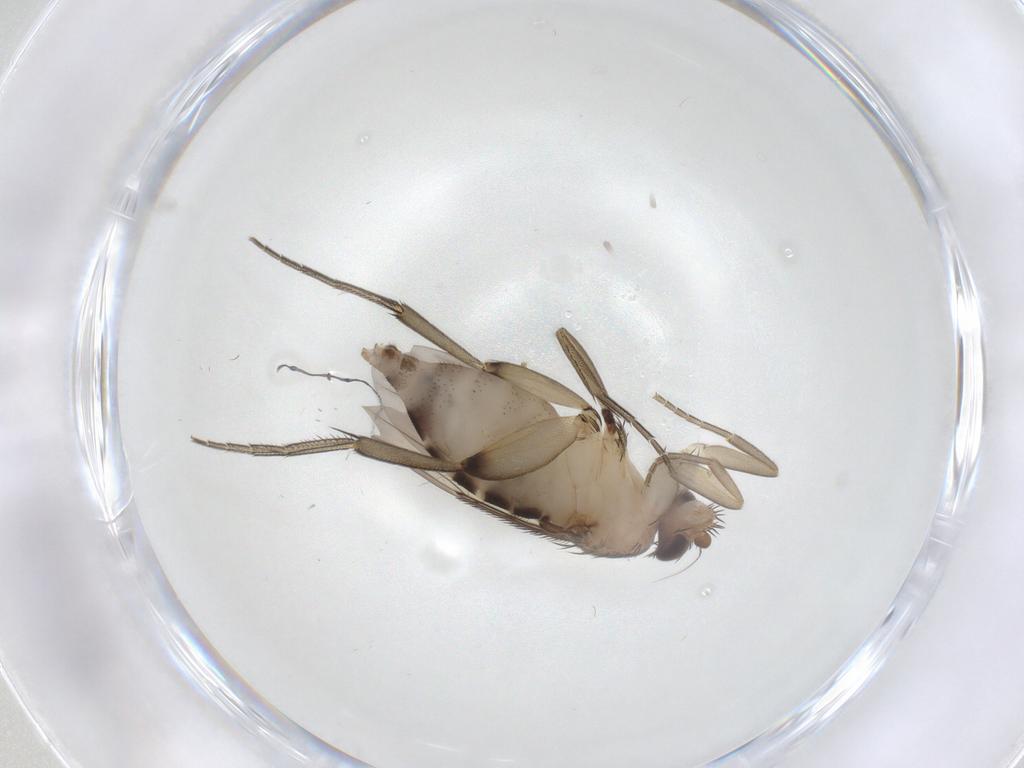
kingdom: Animalia
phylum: Arthropoda
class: Insecta
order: Diptera
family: Phoridae
